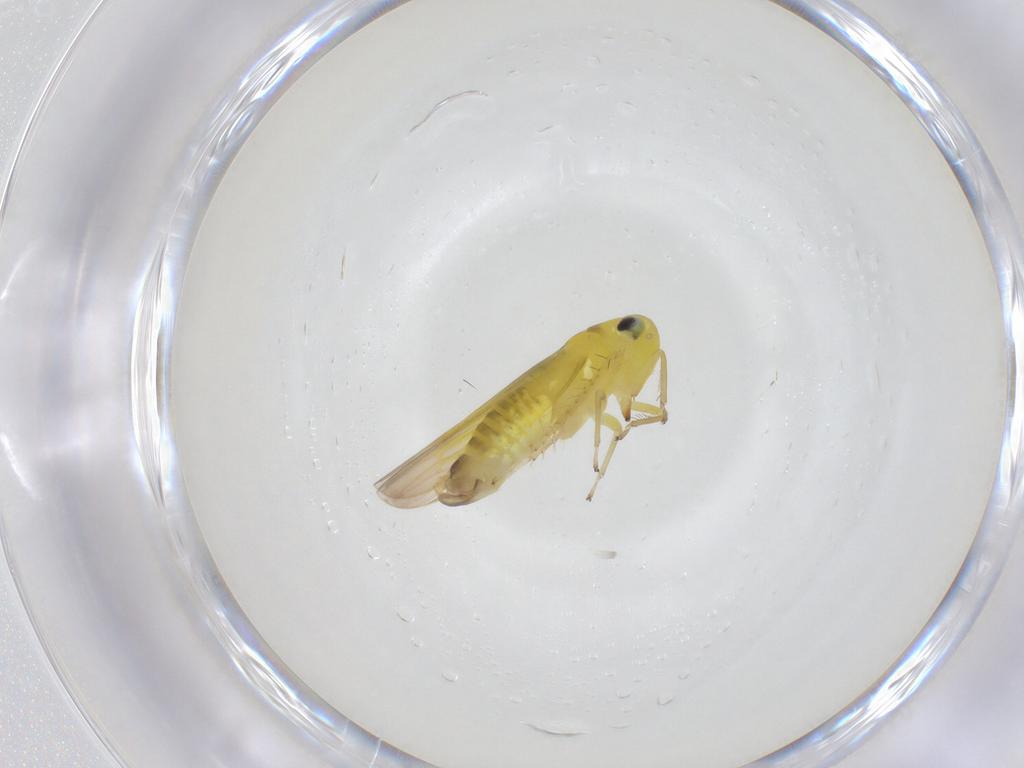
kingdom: Animalia
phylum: Arthropoda
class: Insecta
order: Hemiptera
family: Cicadellidae
